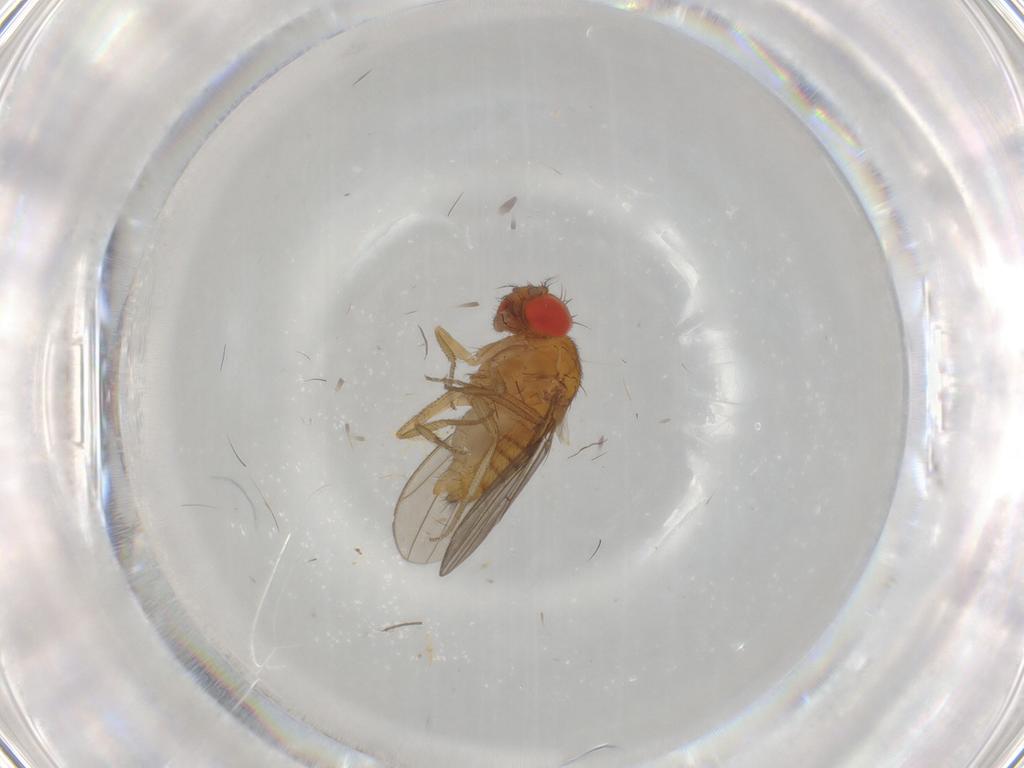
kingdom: Animalia
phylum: Arthropoda
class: Insecta
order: Diptera
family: Drosophilidae
